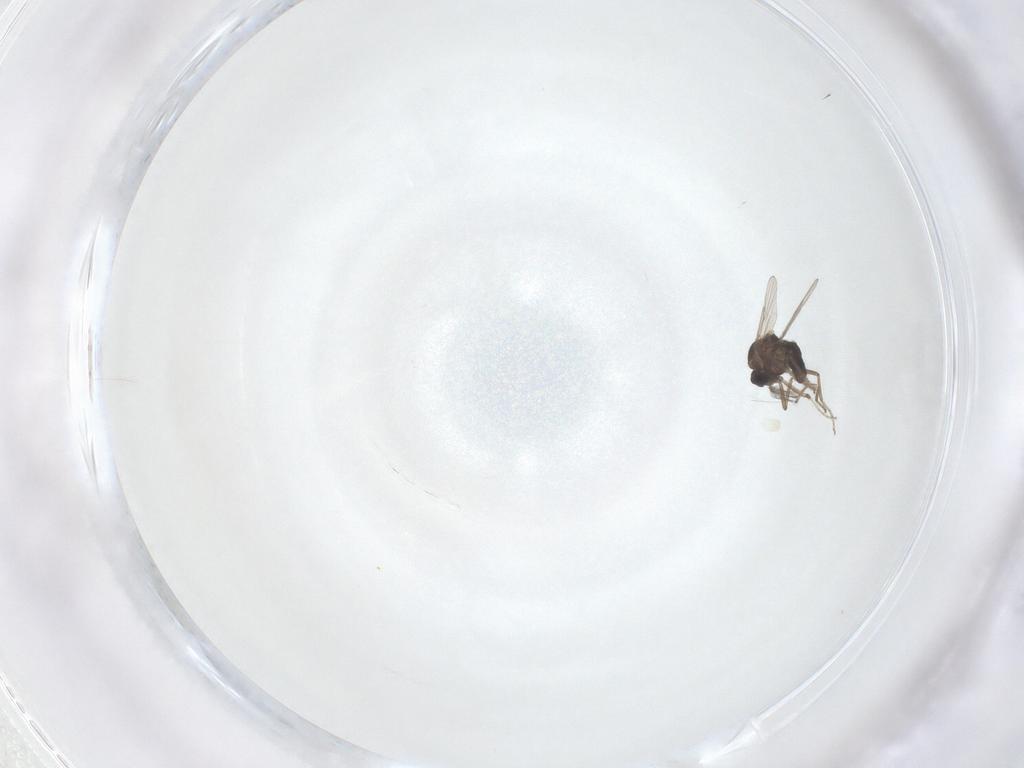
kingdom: Animalia
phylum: Arthropoda
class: Insecta
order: Diptera
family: Ceratopogonidae
